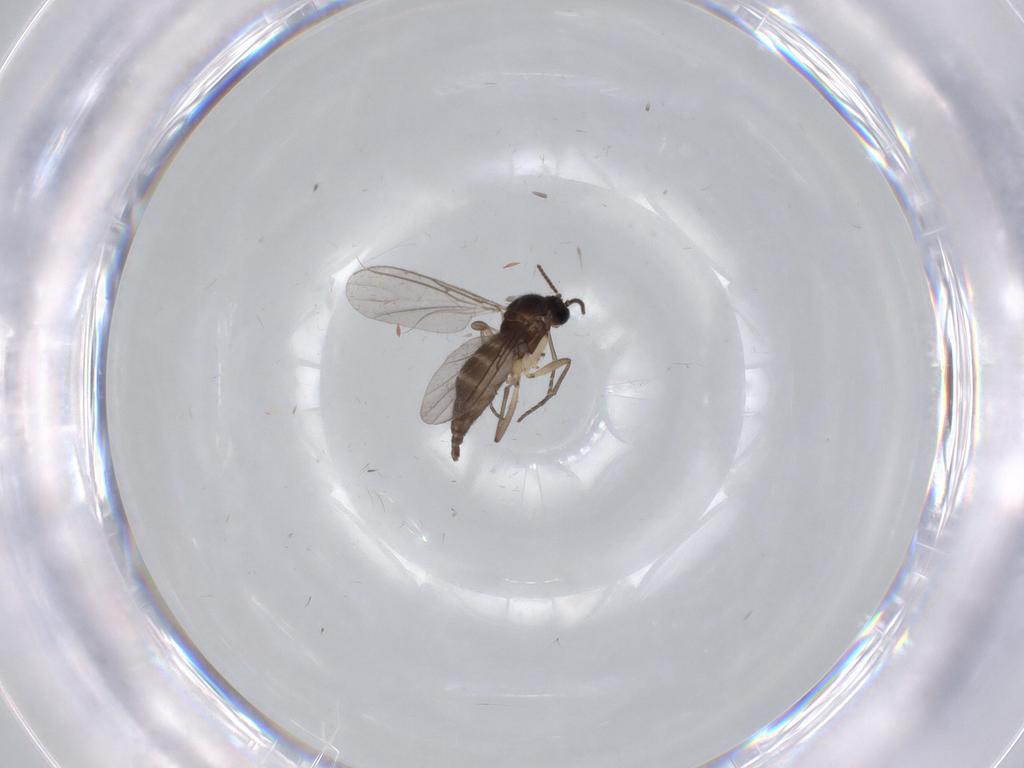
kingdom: Animalia
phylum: Arthropoda
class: Insecta
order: Diptera
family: Sciaridae
